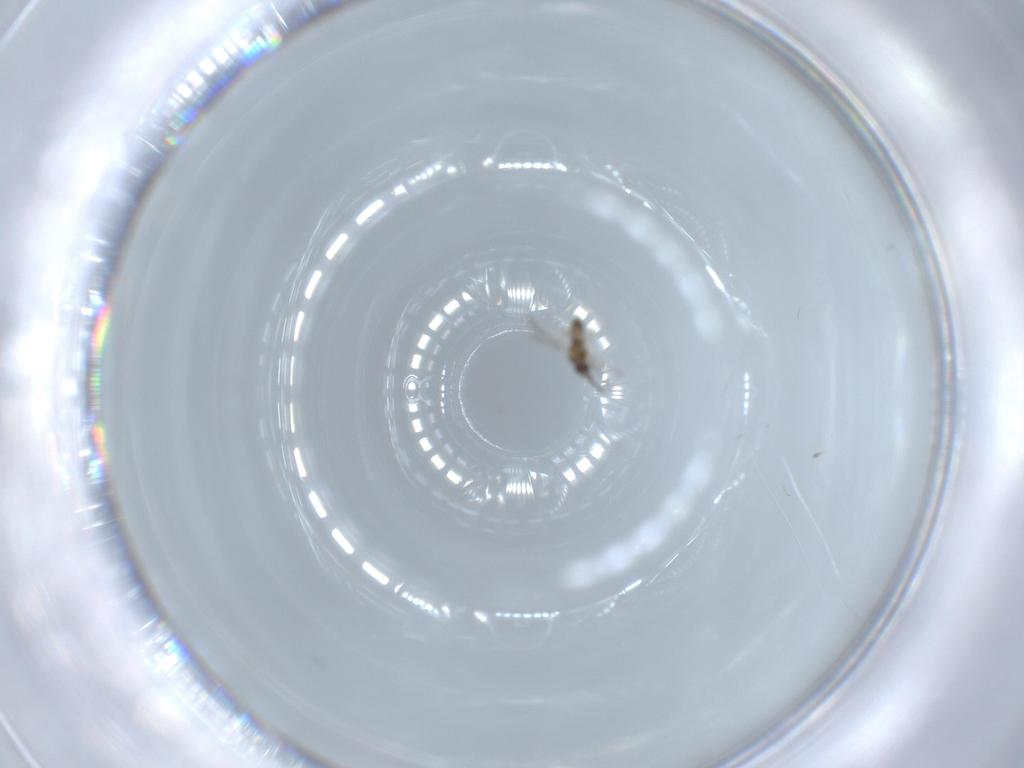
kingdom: Animalia
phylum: Arthropoda
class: Insecta
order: Hymenoptera
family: Mymaridae
